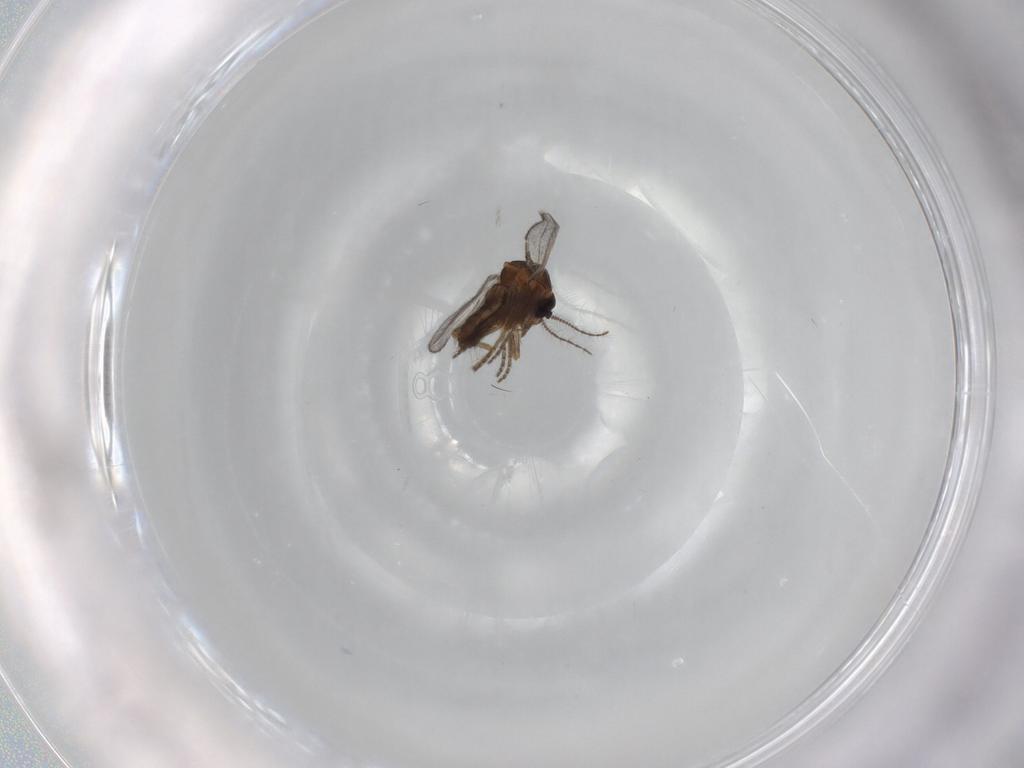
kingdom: Animalia
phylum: Arthropoda
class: Insecta
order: Diptera
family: Ceratopogonidae
